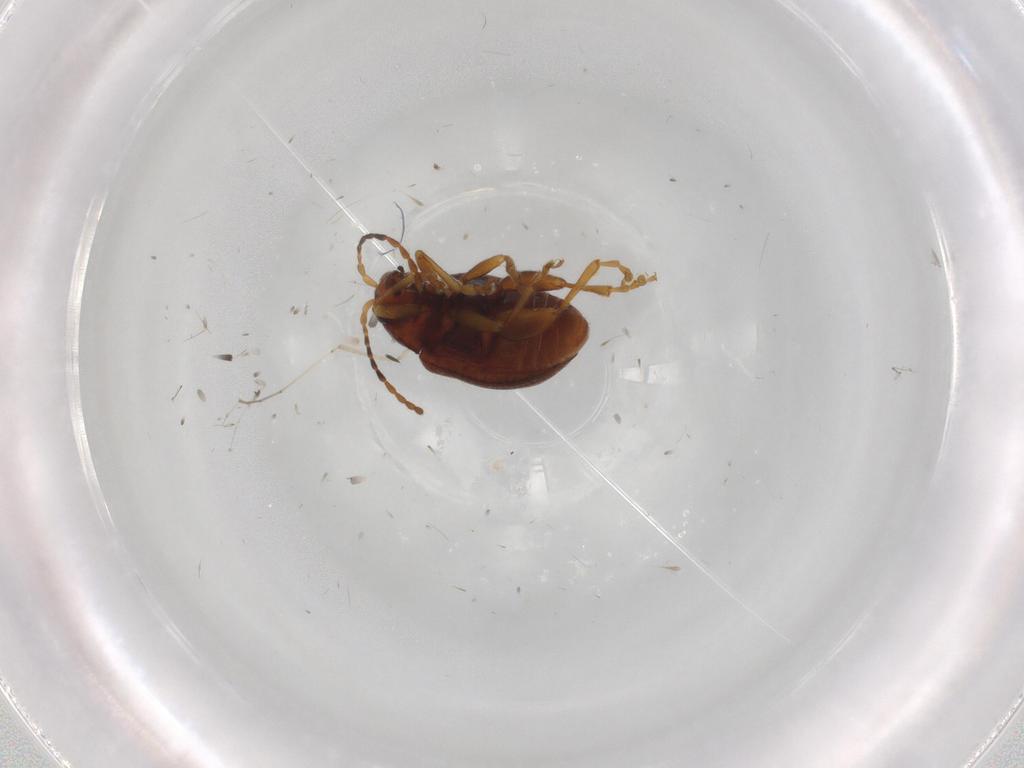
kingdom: Animalia
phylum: Arthropoda
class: Insecta
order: Coleoptera
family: Chrysomelidae
